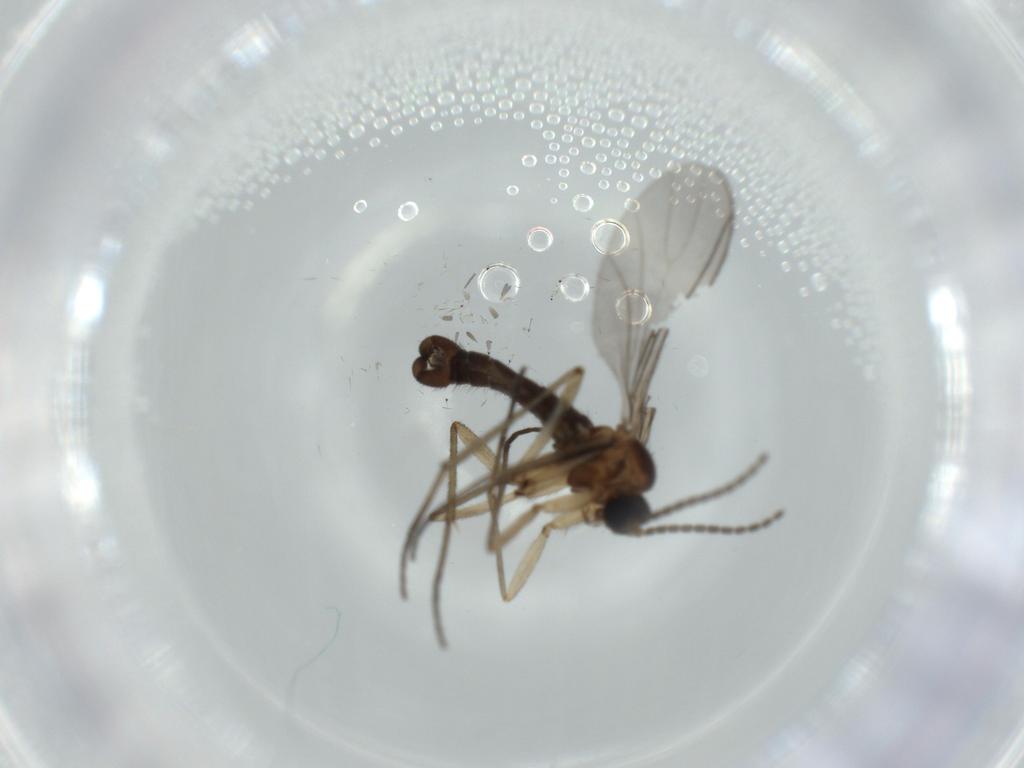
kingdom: Animalia
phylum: Arthropoda
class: Insecta
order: Diptera
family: Sciaridae
